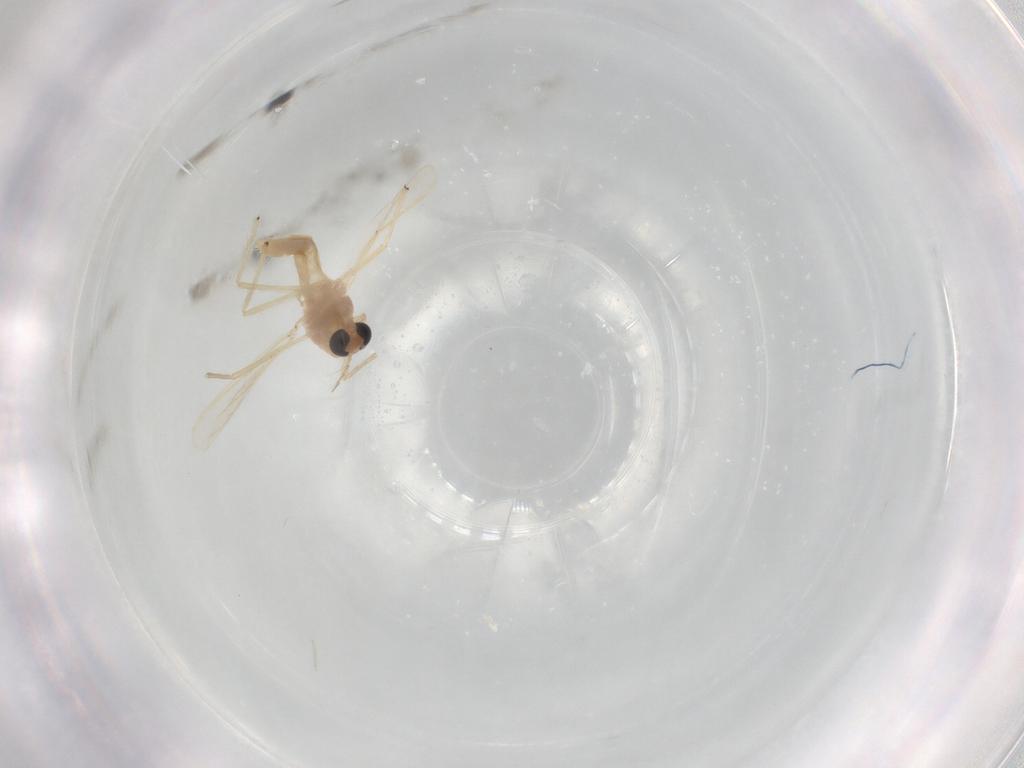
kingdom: Animalia
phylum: Arthropoda
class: Insecta
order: Diptera
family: Chironomidae
